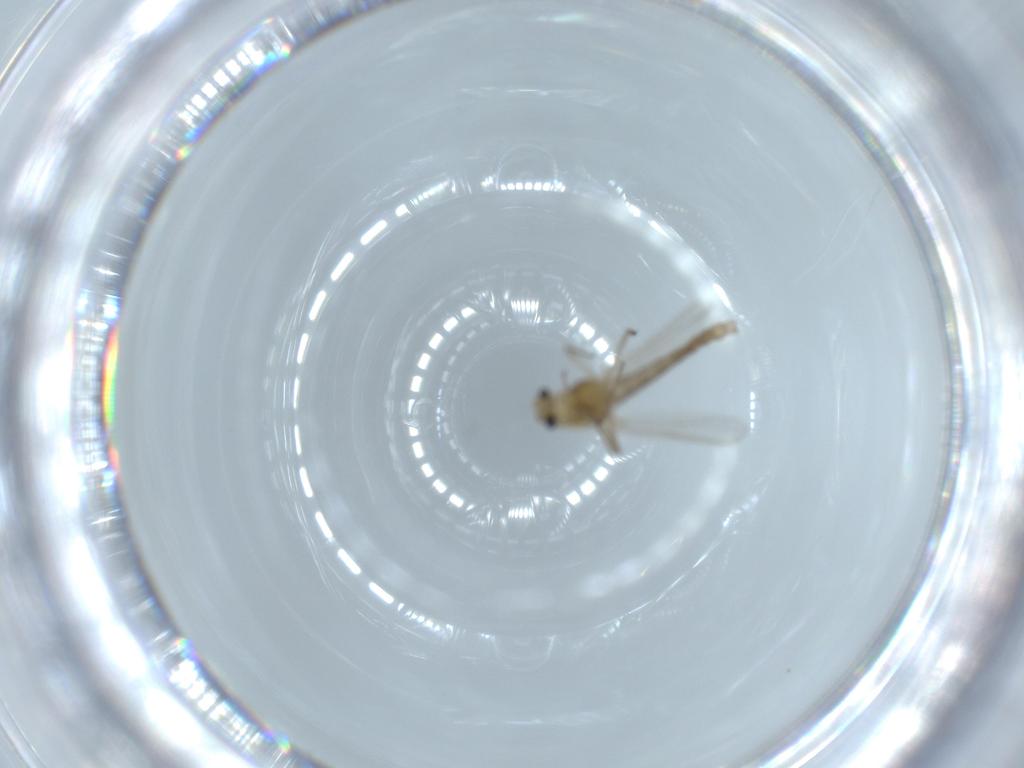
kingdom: Animalia
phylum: Arthropoda
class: Insecta
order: Diptera
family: Chironomidae
